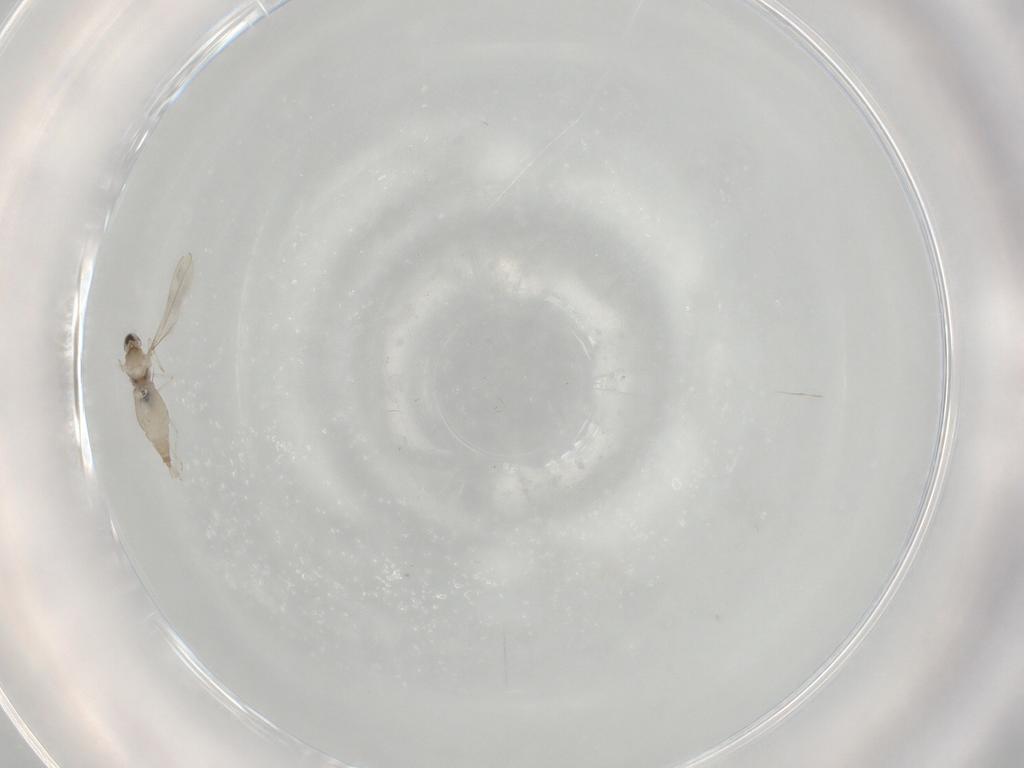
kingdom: Animalia
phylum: Arthropoda
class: Insecta
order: Diptera
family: Cecidomyiidae
